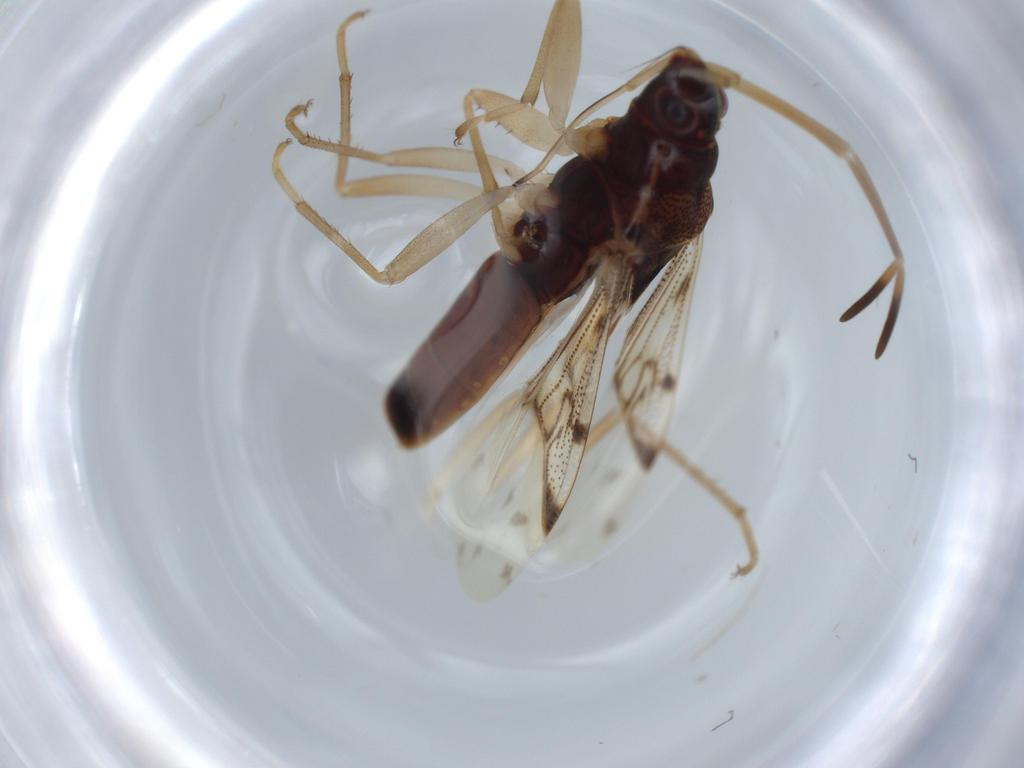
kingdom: Animalia
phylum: Arthropoda
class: Insecta
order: Hemiptera
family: Rhyparochromidae
